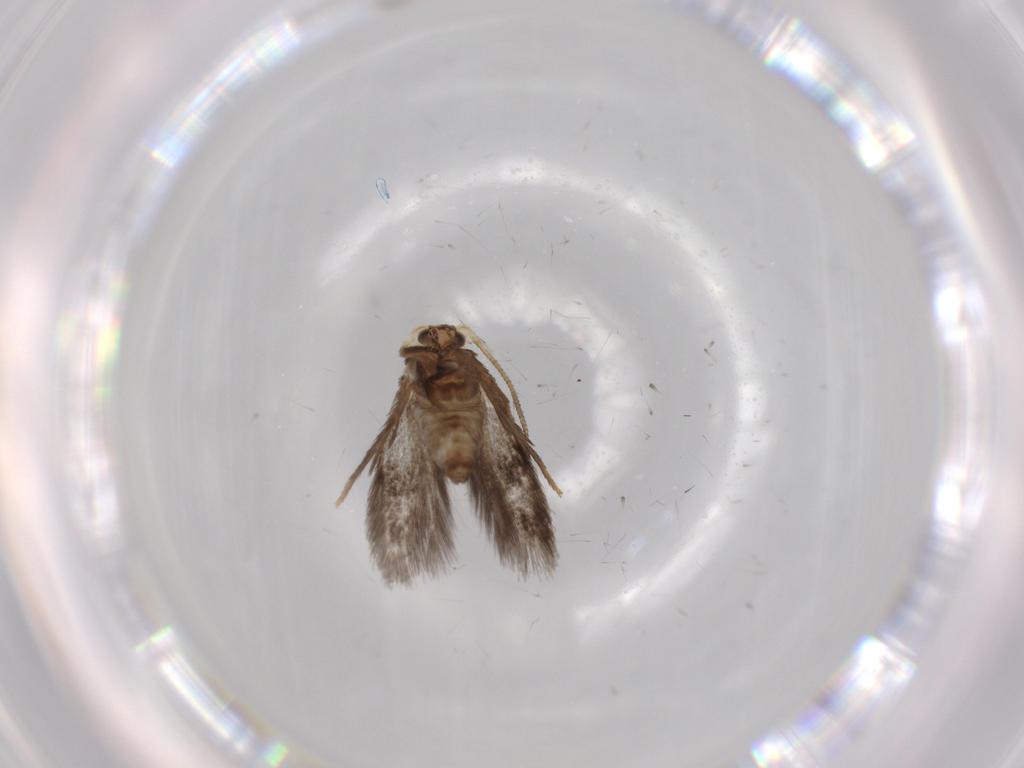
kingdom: Animalia
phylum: Arthropoda
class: Insecta
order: Lepidoptera
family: Nepticulidae
